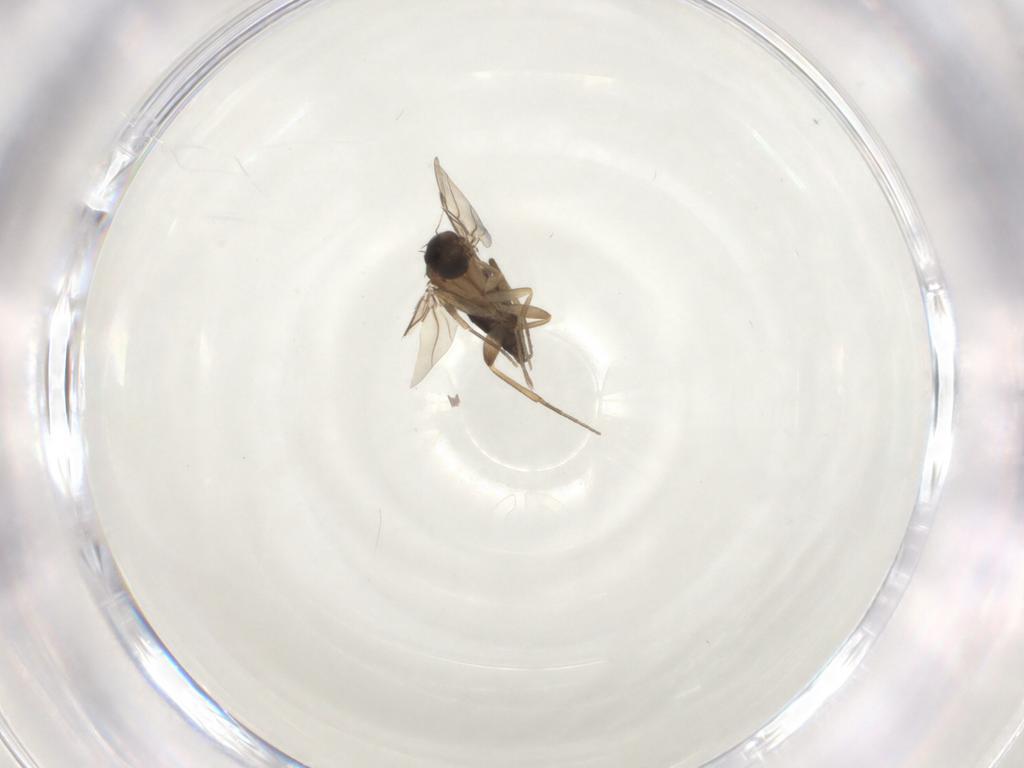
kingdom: Animalia
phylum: Arthropoda
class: Insecta
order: Diptera
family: Phoridae
